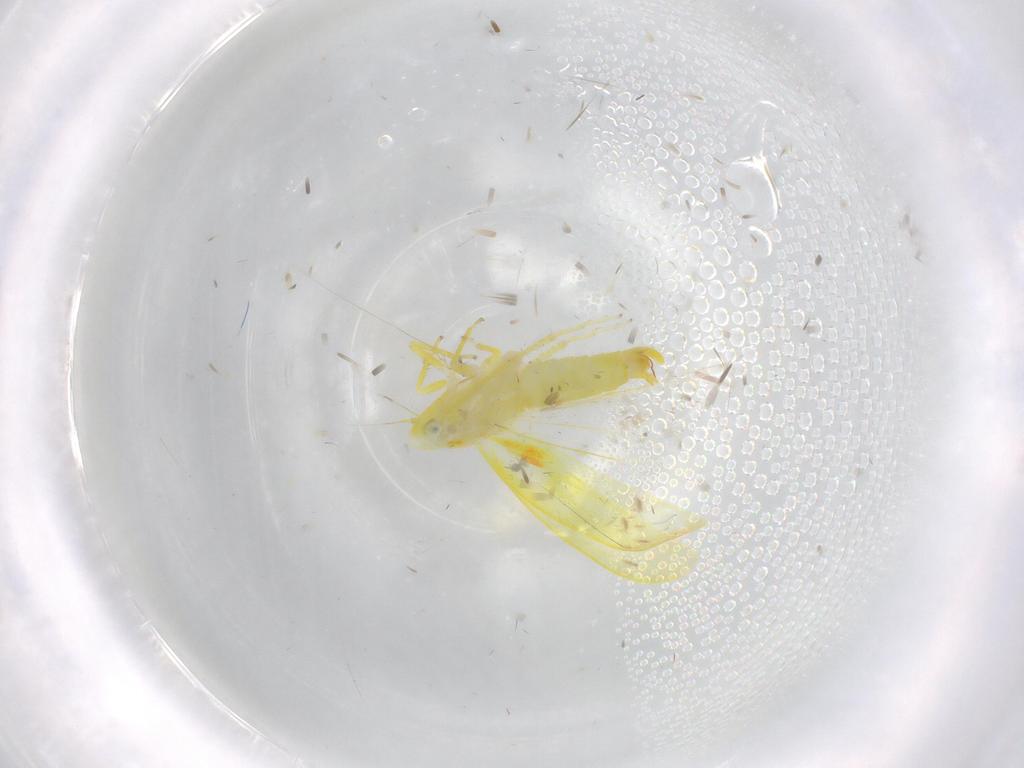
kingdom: Animalia
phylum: Arthropoda
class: Insecta
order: Hemiptera
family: Cicadellidae
